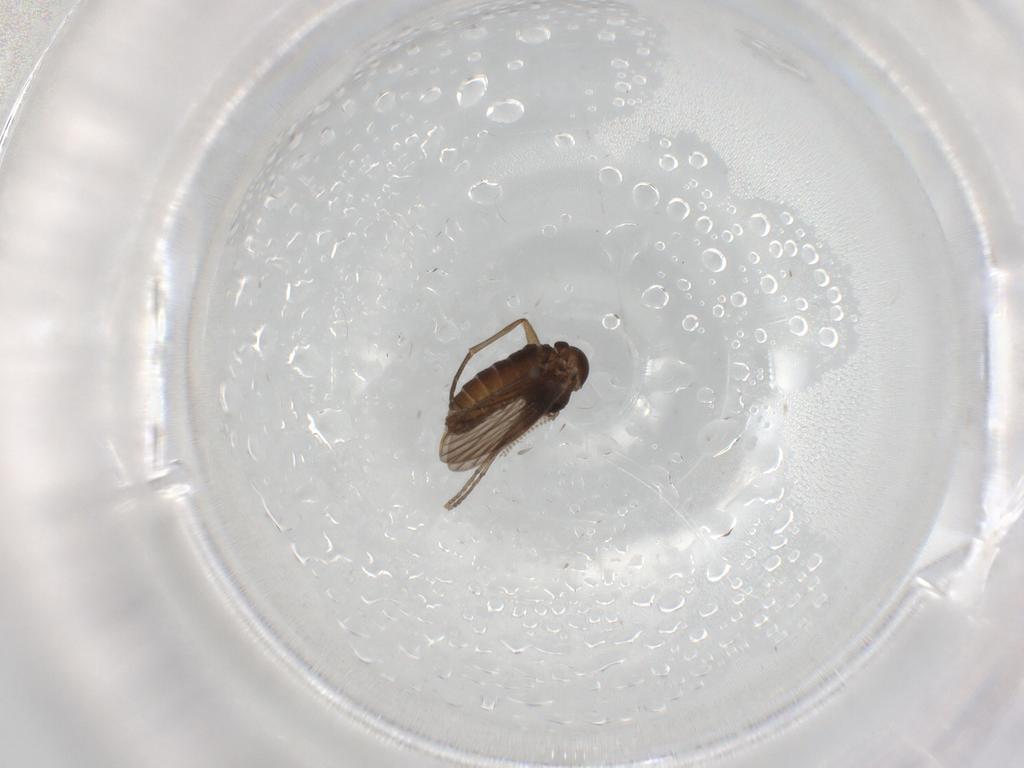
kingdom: Animalia
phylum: Arthropoda
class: Insecta
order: Diptera
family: Psychodidae
